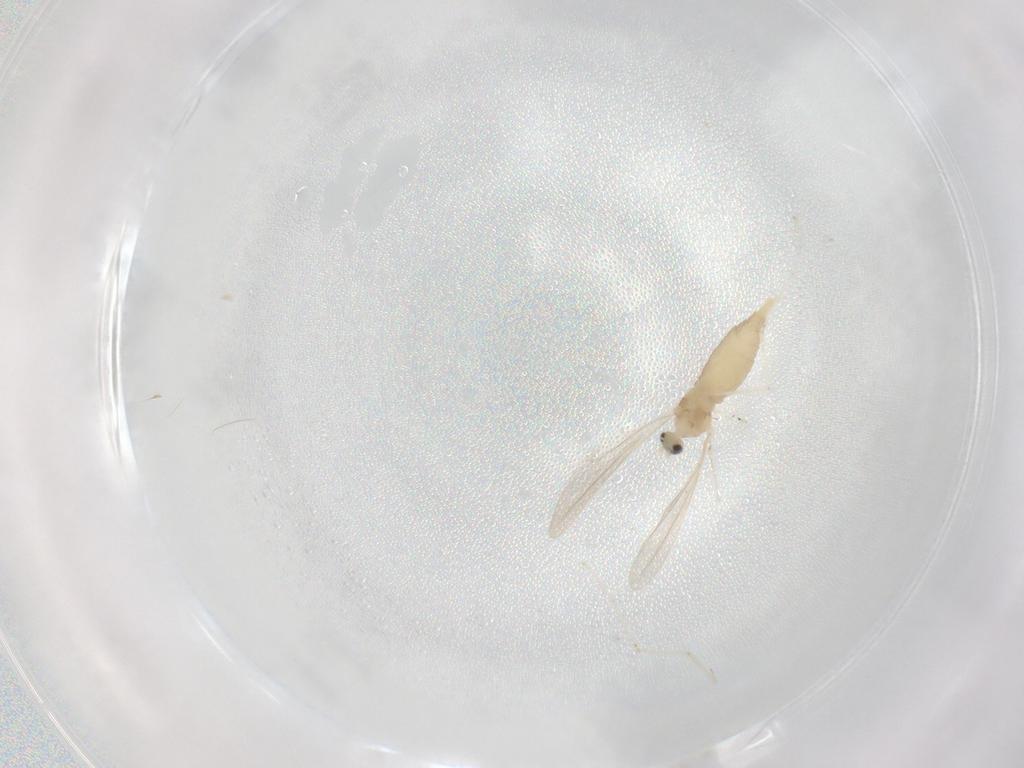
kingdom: Animalia
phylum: Arthropoda
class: Insecta
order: Diptera
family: Cecidomyiidae
